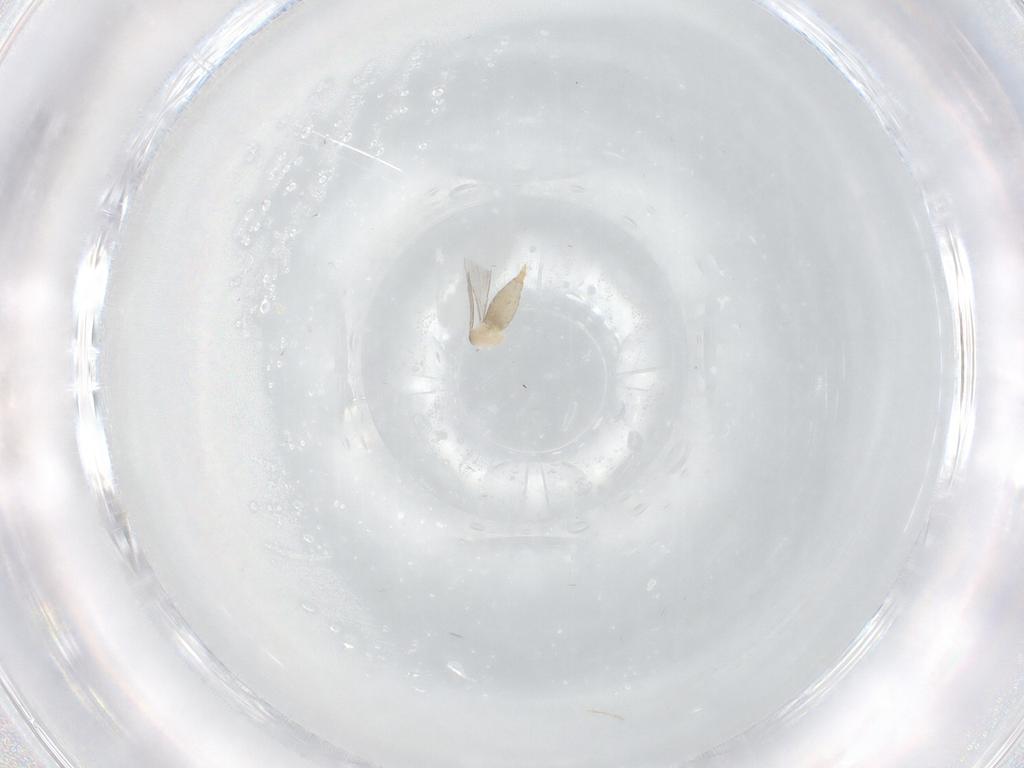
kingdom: Animalia
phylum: Arthropoda
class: Insecta
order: Diptera
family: Cecidomyiidae
